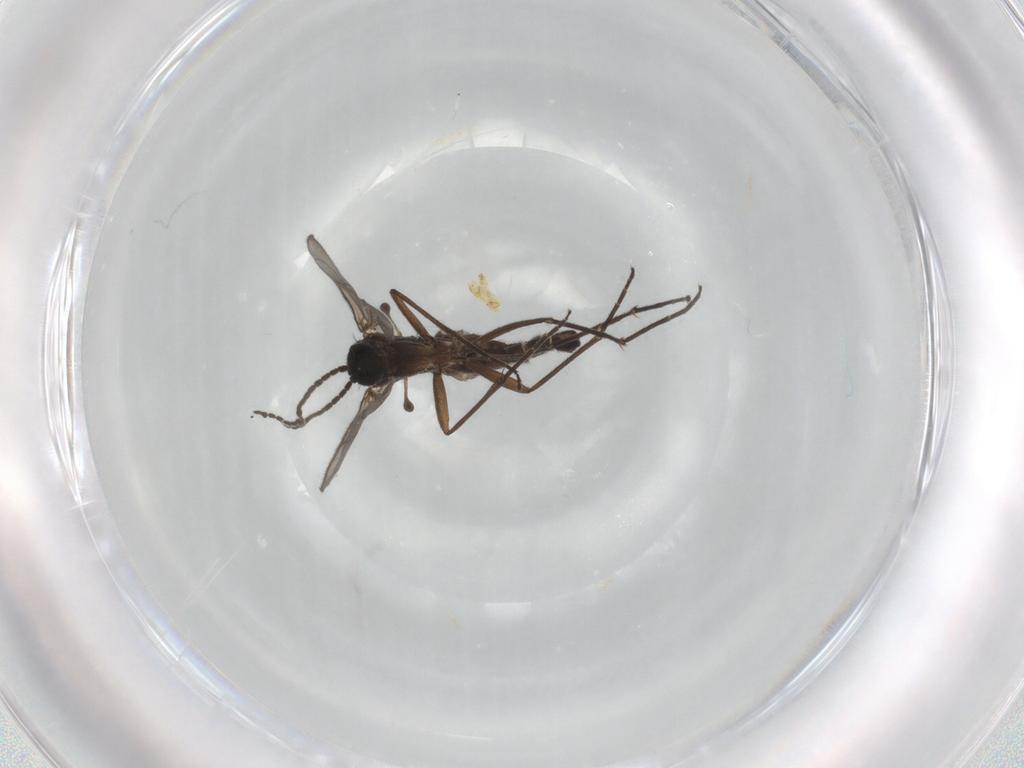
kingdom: Animalia
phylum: Arthropoda
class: Insecta
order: Diptera
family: Sciaridae
